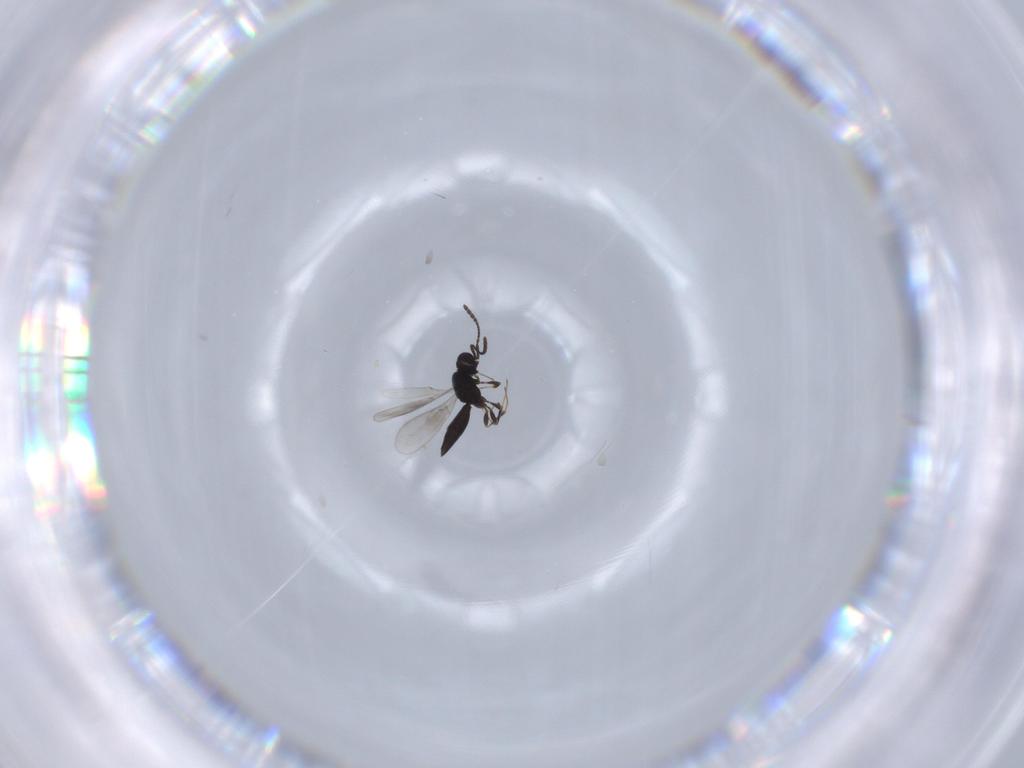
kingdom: Animalia
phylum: Arthropoda
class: Insecta
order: Hymenoptera
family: Scelionidae
